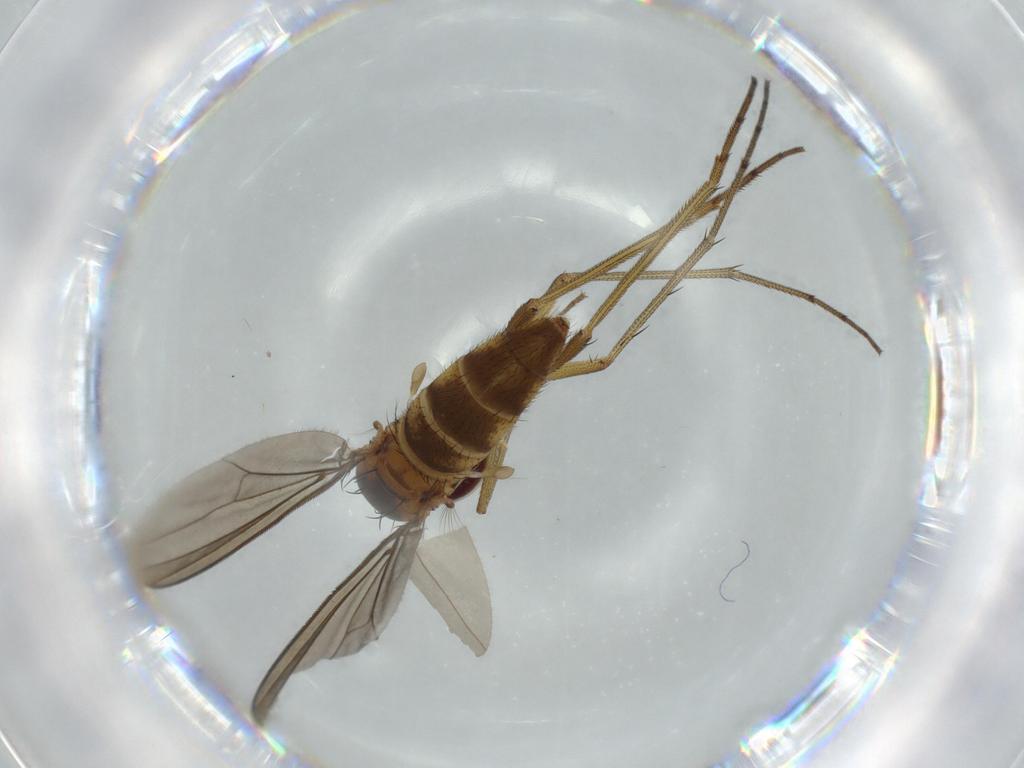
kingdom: Animalia
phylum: Arthropoda
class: Insecta
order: Diptera
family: Dolichopodidae
